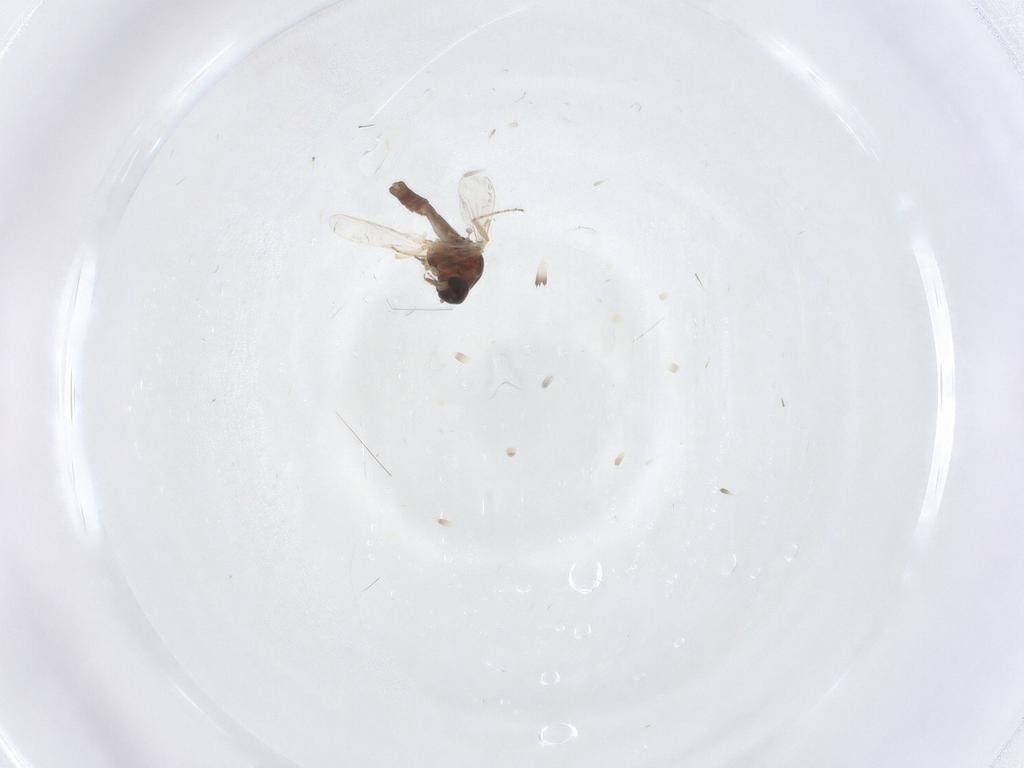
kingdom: Animalia
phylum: Arthropoda
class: Insecta
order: Diptera
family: Ceratopogonidae
